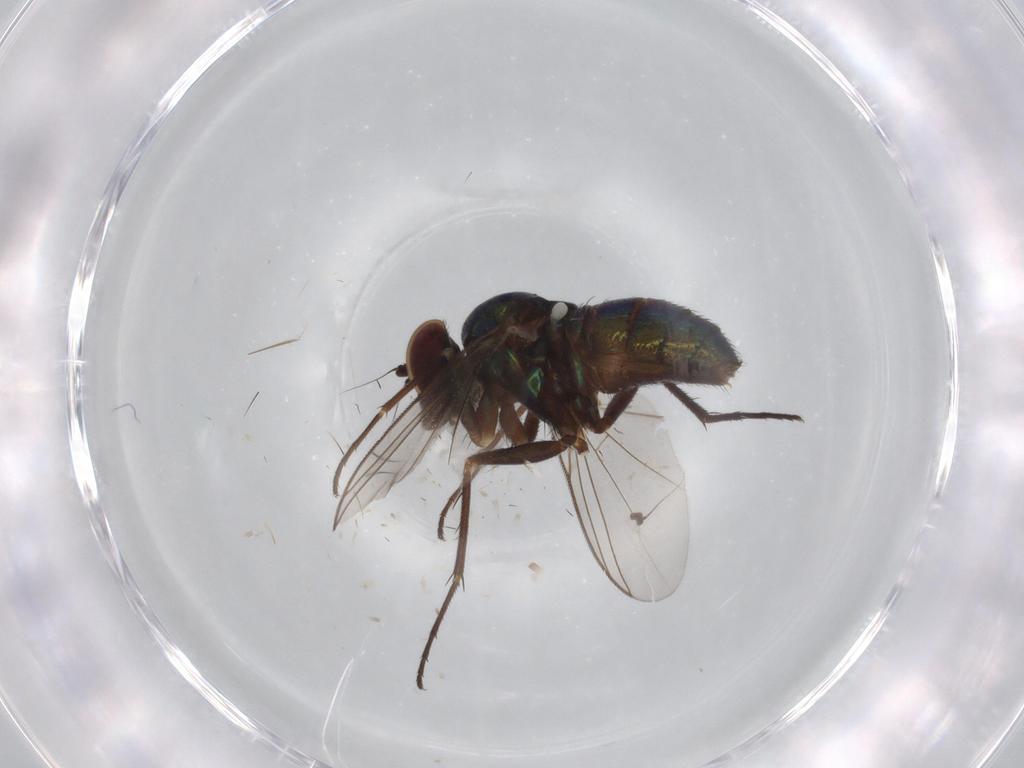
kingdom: Animalia
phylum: Arthropoda
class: Insecta
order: Diptera
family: Dolichopodidae
